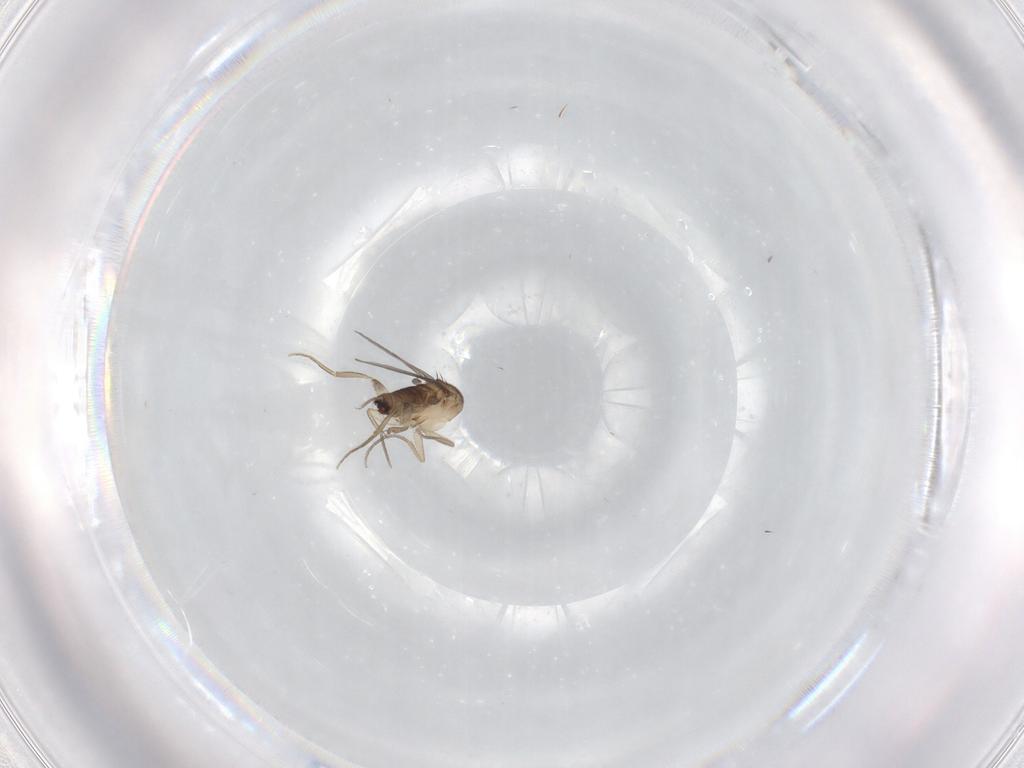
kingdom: Animalia
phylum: Arthropoda
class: Insecta
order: Diptera
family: Phoridae
